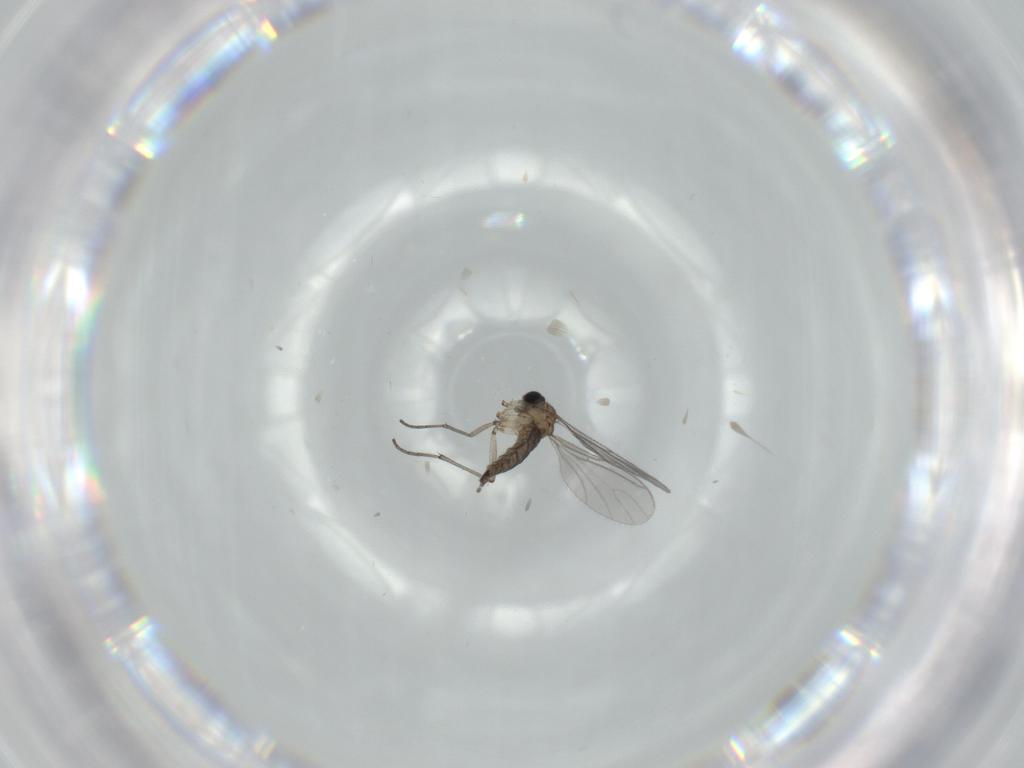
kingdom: Animalia
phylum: Arthropoda
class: Insecta
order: Diptera
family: Sciaridae
